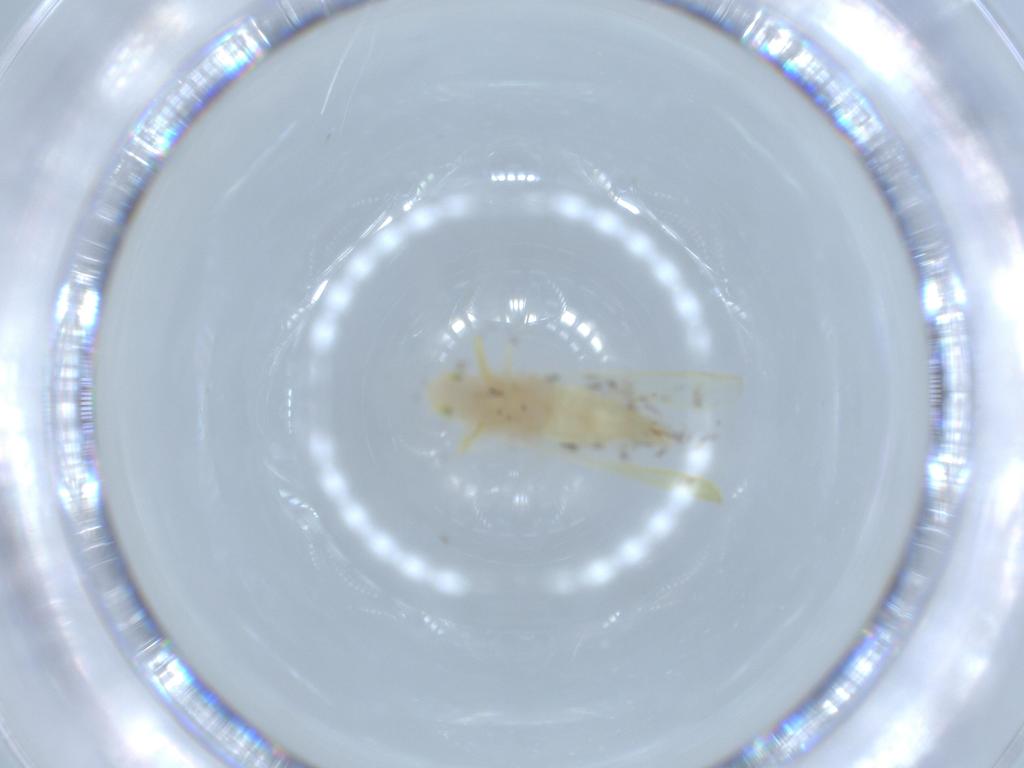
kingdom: Animalia
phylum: Arthropoda
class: Insecta
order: Hemiptera
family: Cicadellidae
